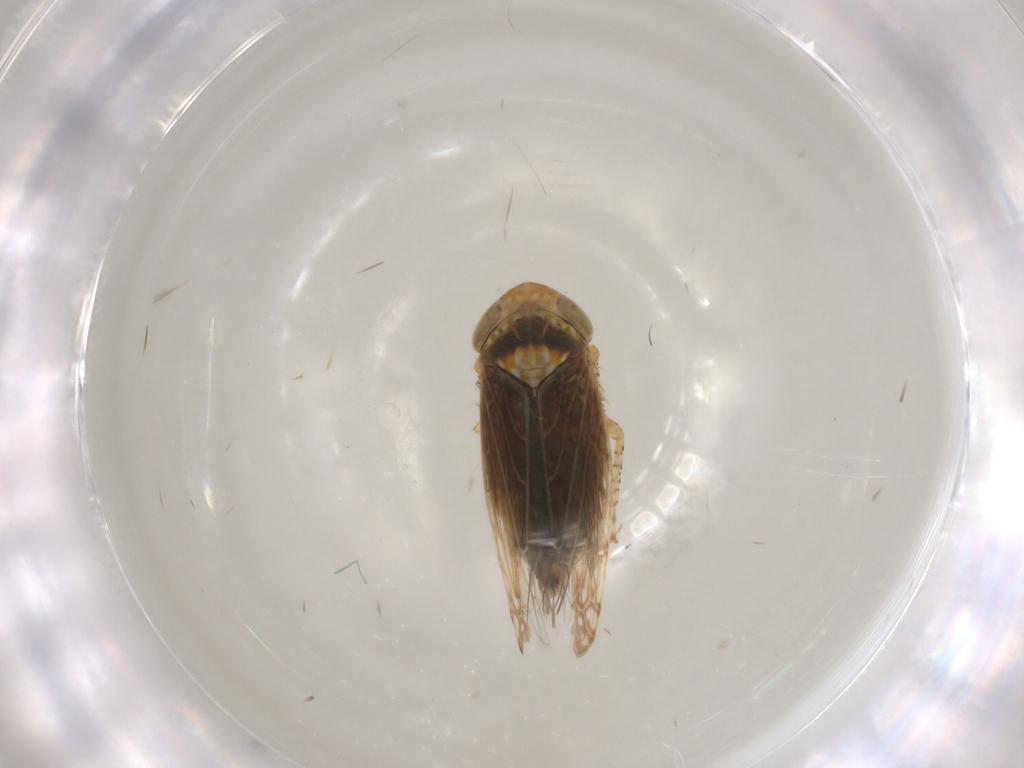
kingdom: Animalia
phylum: Arthropoda
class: Insecta
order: Hemiptera
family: Cicadellidae
